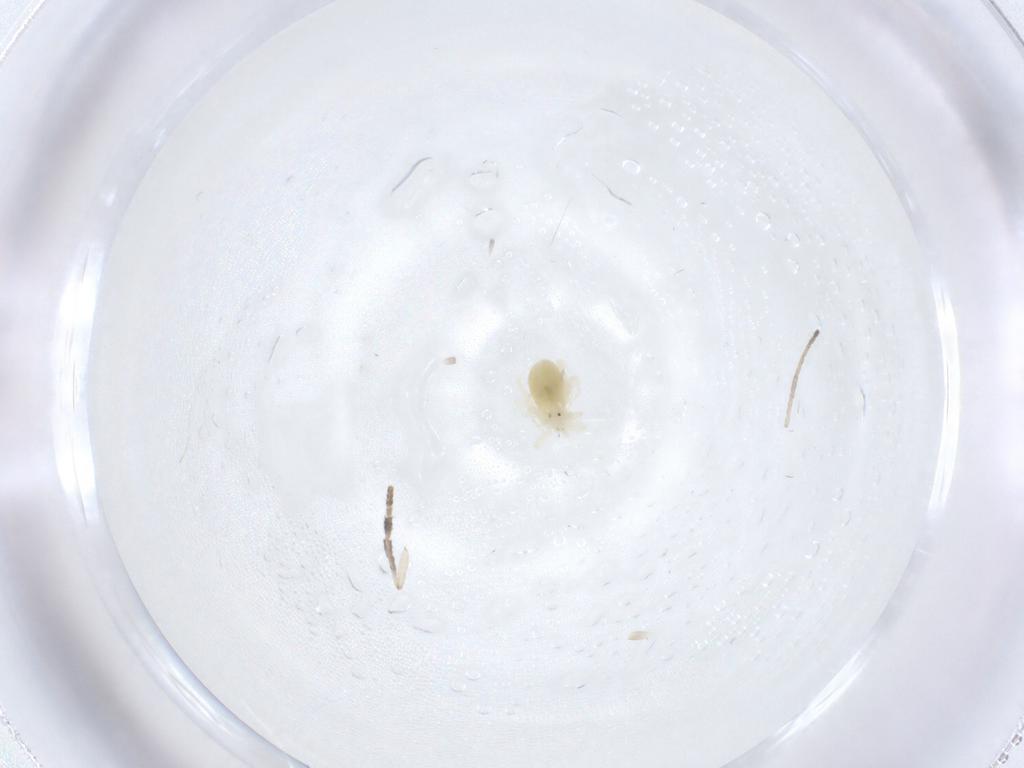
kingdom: Animalia
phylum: Arthropoda
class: Arachnida
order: Trombidiformes
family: Anystidae
